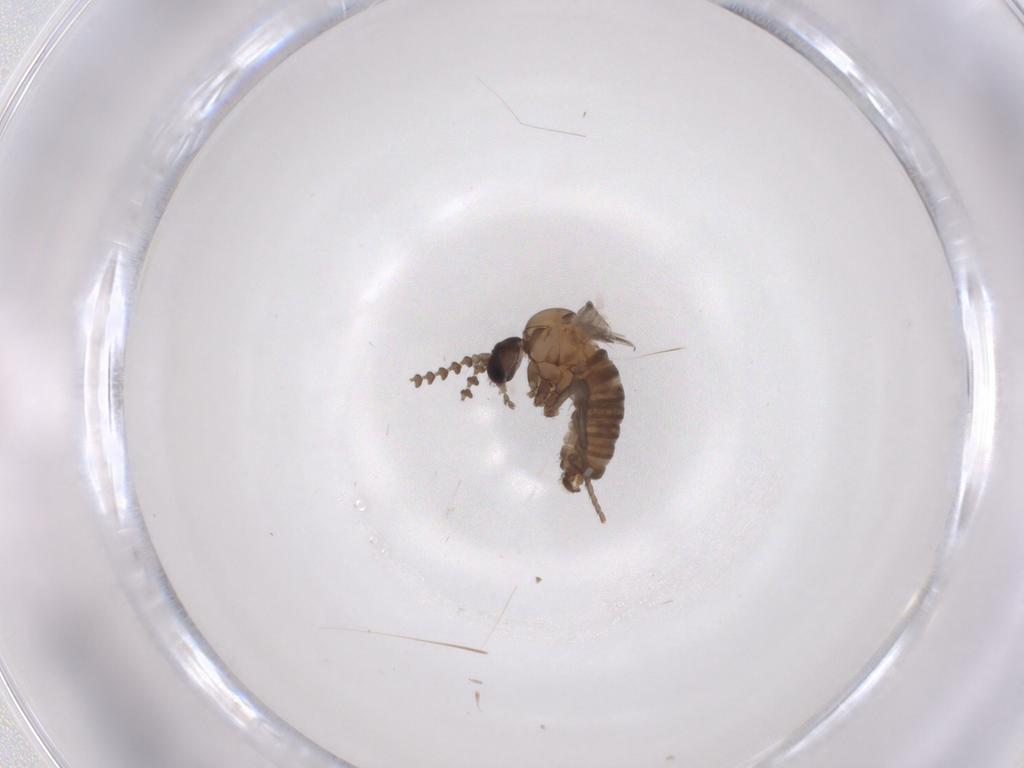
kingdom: Animalia
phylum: Arthropoda
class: Insecta
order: Diptera
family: Psychodidae
